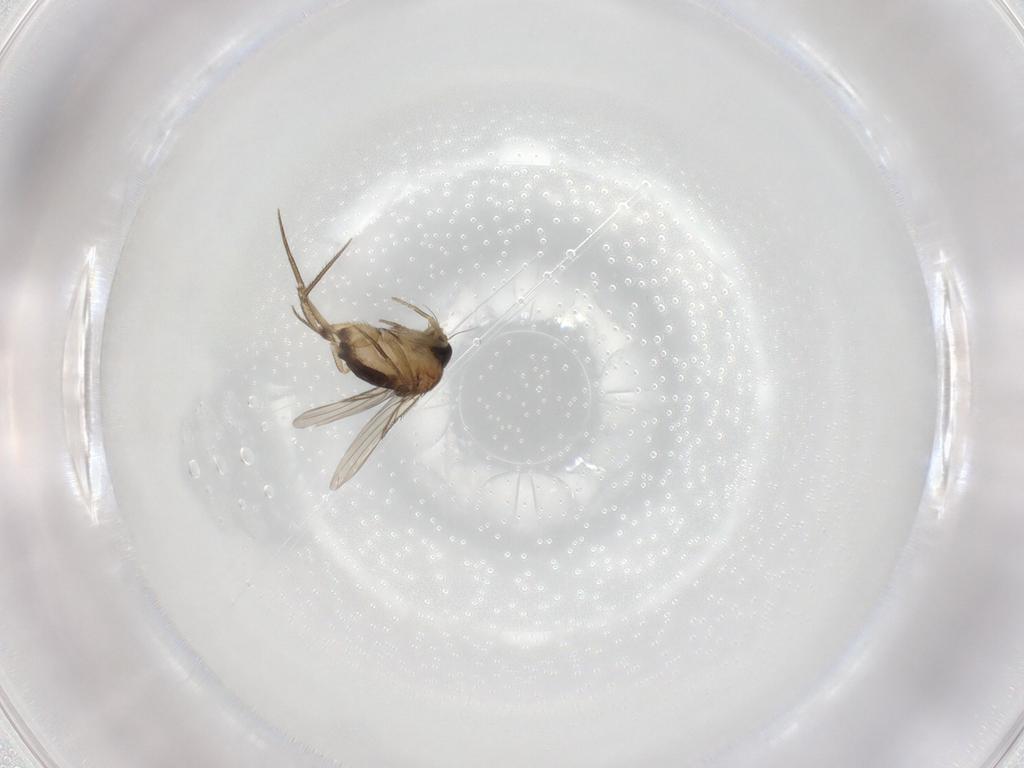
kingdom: Animalia
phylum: Arthropoda
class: Insecta
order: Diptera
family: Phoridae
